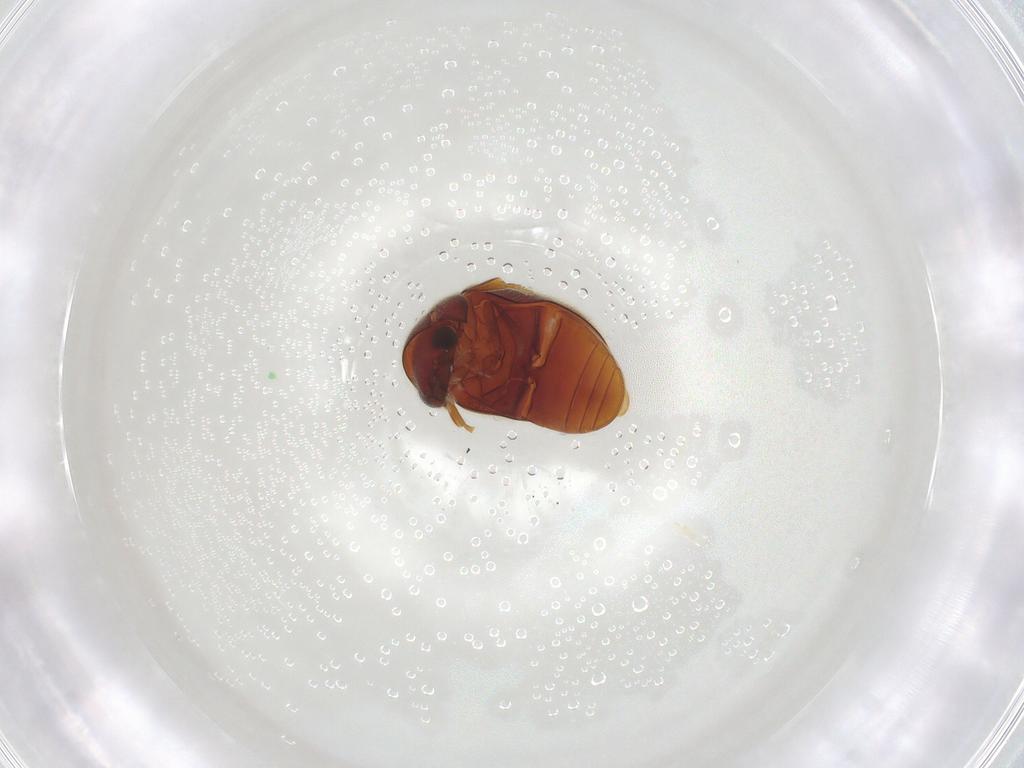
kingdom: Animalia
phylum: Arthropoda
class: Insecta
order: Coleoptera
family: Ptinidae
